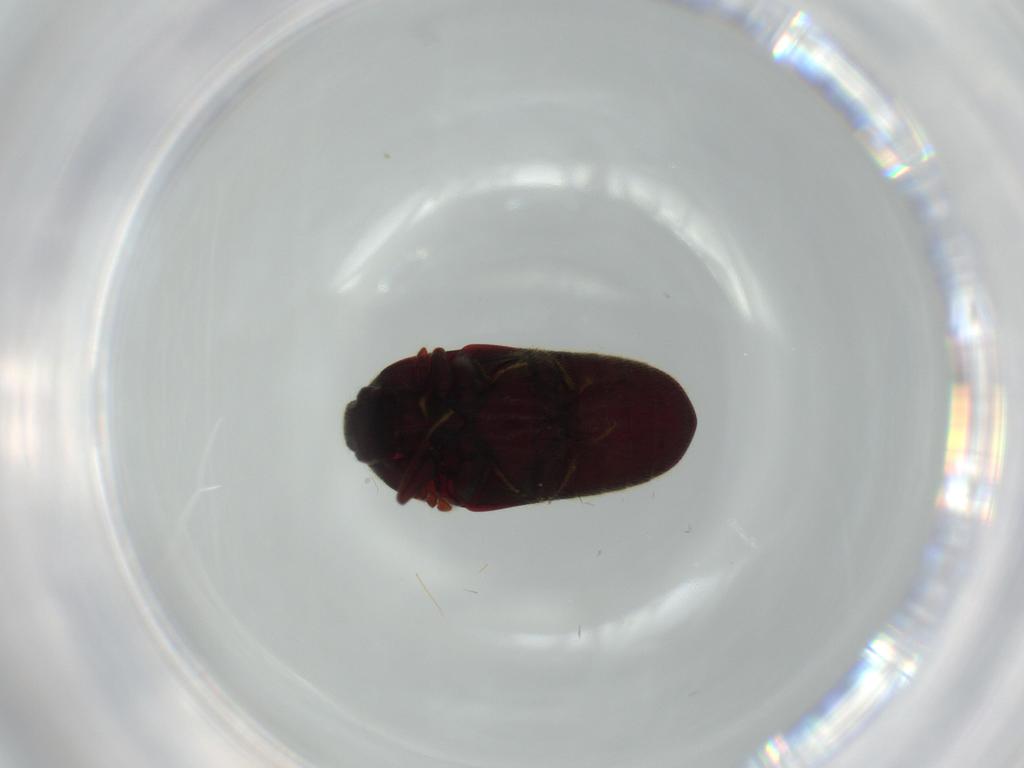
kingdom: Animalia
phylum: Arthropoda
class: Insecta
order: Coleoptera
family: Throscidae
